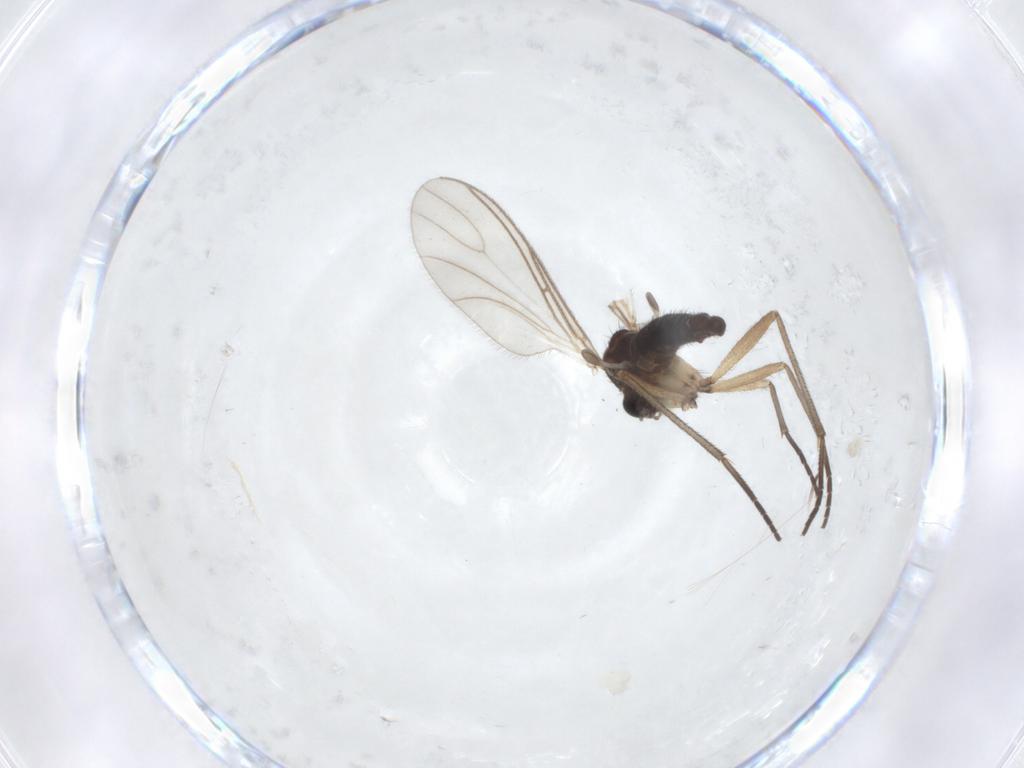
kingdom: Animalia
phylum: Arthropoda
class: Insecta
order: Diptera
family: Sciaridae
